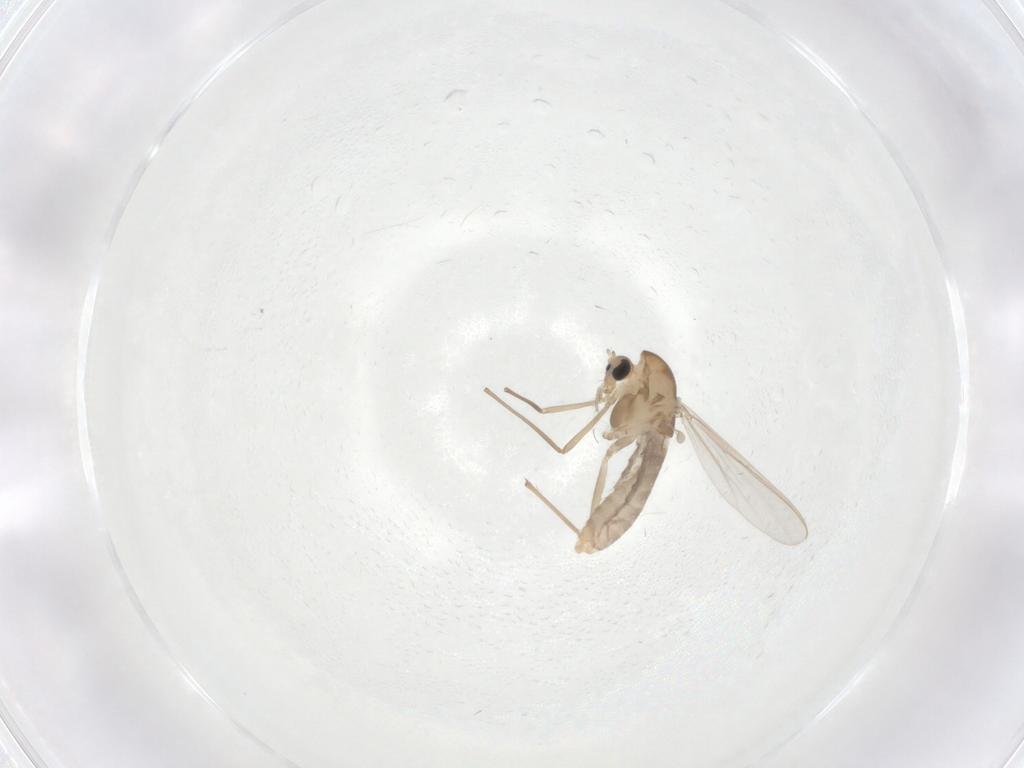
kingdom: Animalia
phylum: Arthropoda
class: Insecta
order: Diptera
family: Chironomidae
